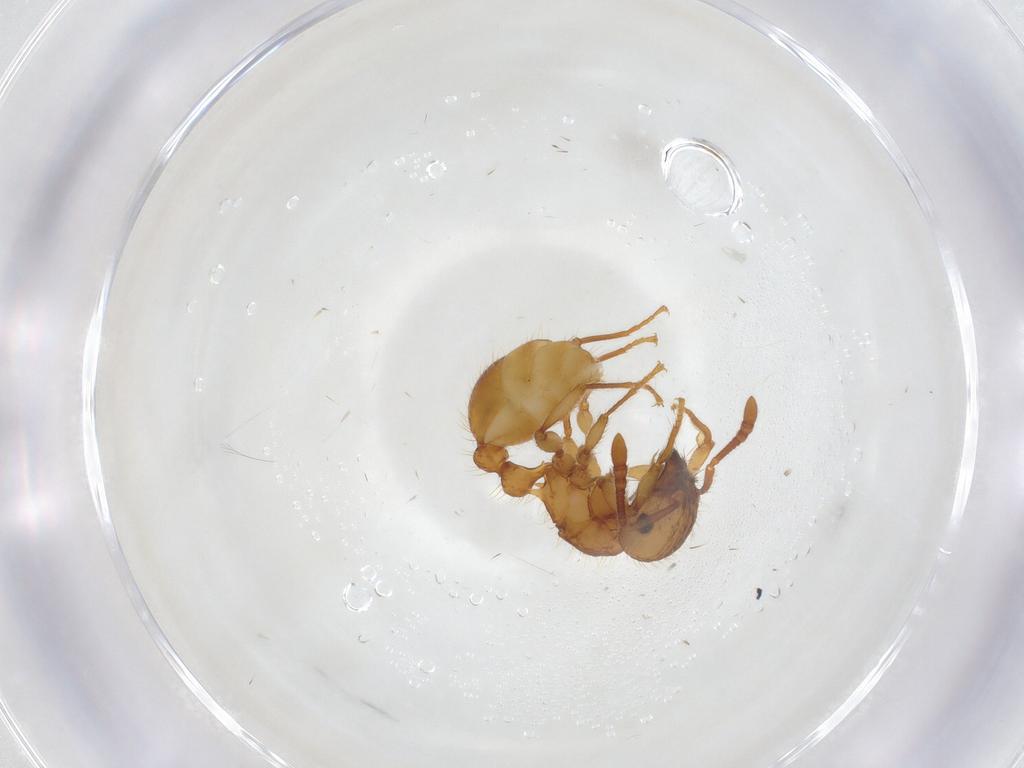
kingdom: Animalia
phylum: Arthropoda
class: Insecta
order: Hymenoptera
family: Formicidae
